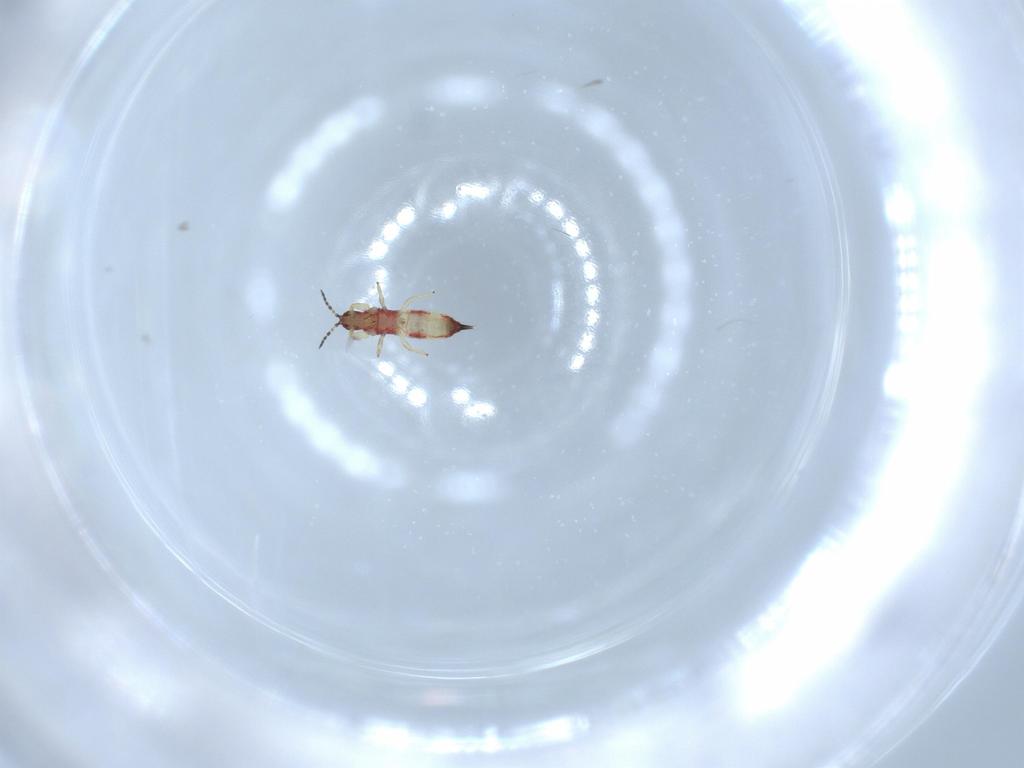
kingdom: Animalia
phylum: Arthropoda
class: Insecta
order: Thysanoptera
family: Phlaeothripidae
